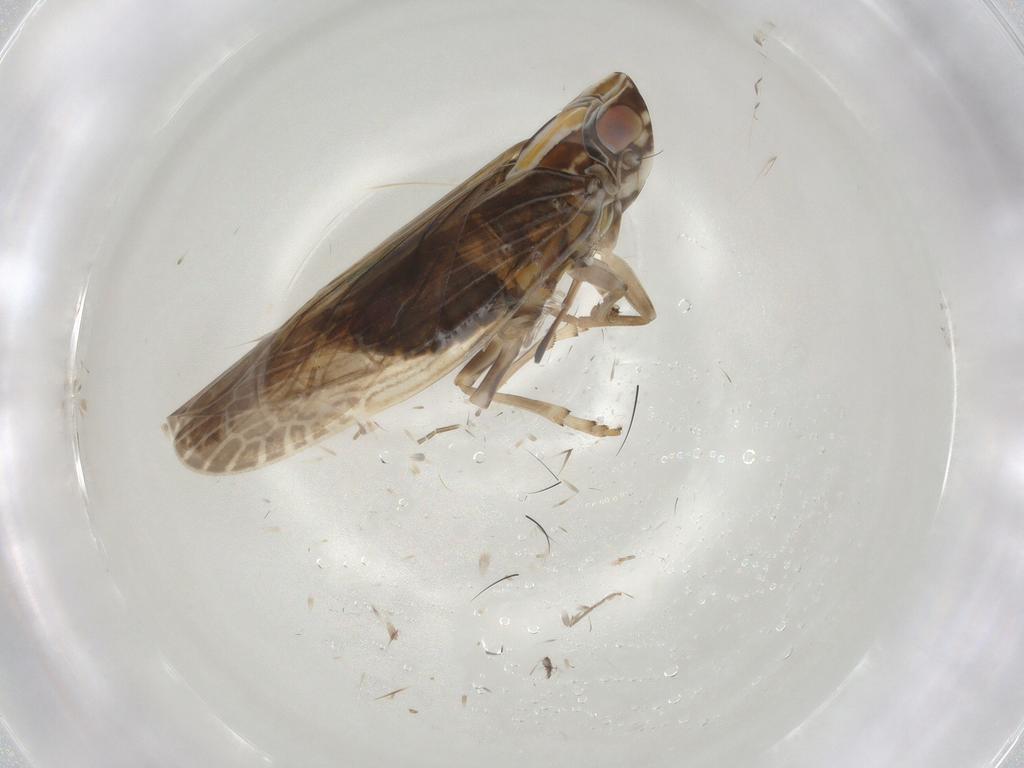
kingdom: Animalia
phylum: Arthropoda
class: Insecta
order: Hemiptera
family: Achilidae
